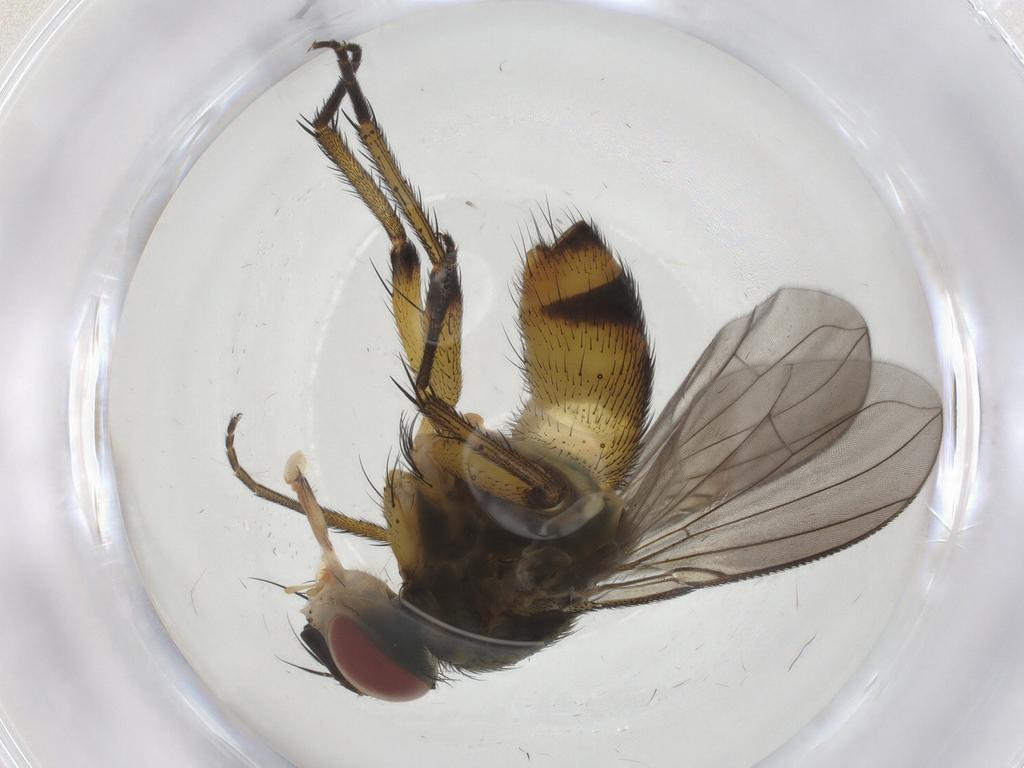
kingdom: Animalia
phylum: Arthropoda
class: Insecta
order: Diptera
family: Tachinidae
